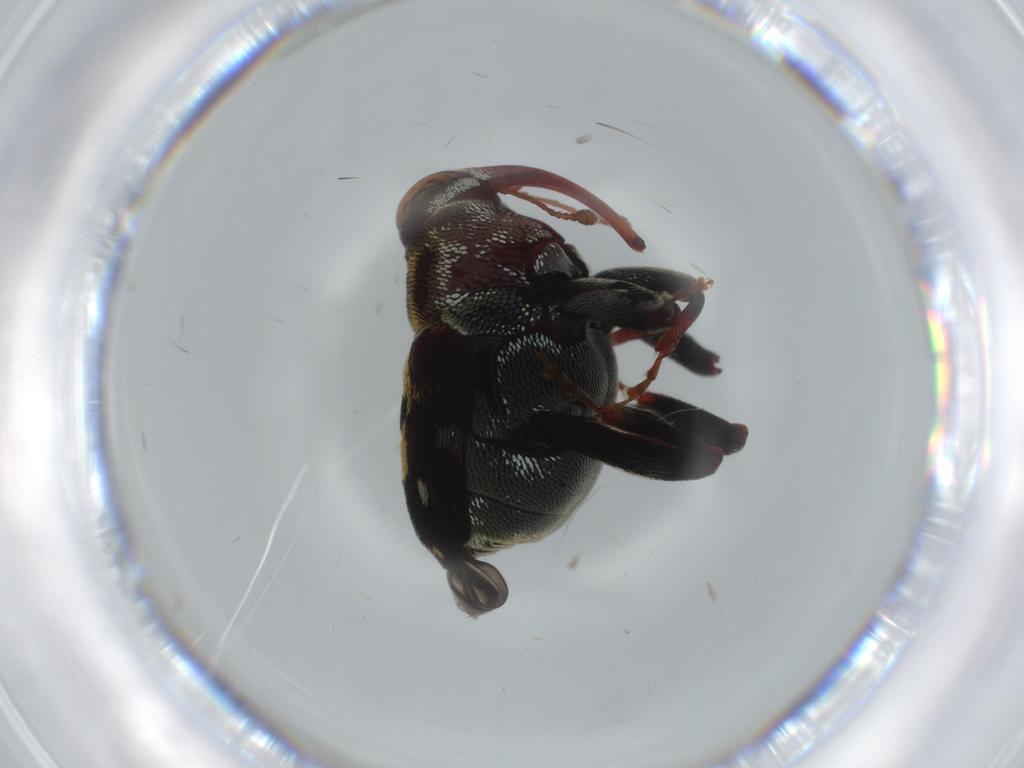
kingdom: Animalia
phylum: Arthropoda
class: Insecta
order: Coleoptera
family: Curculionidae
